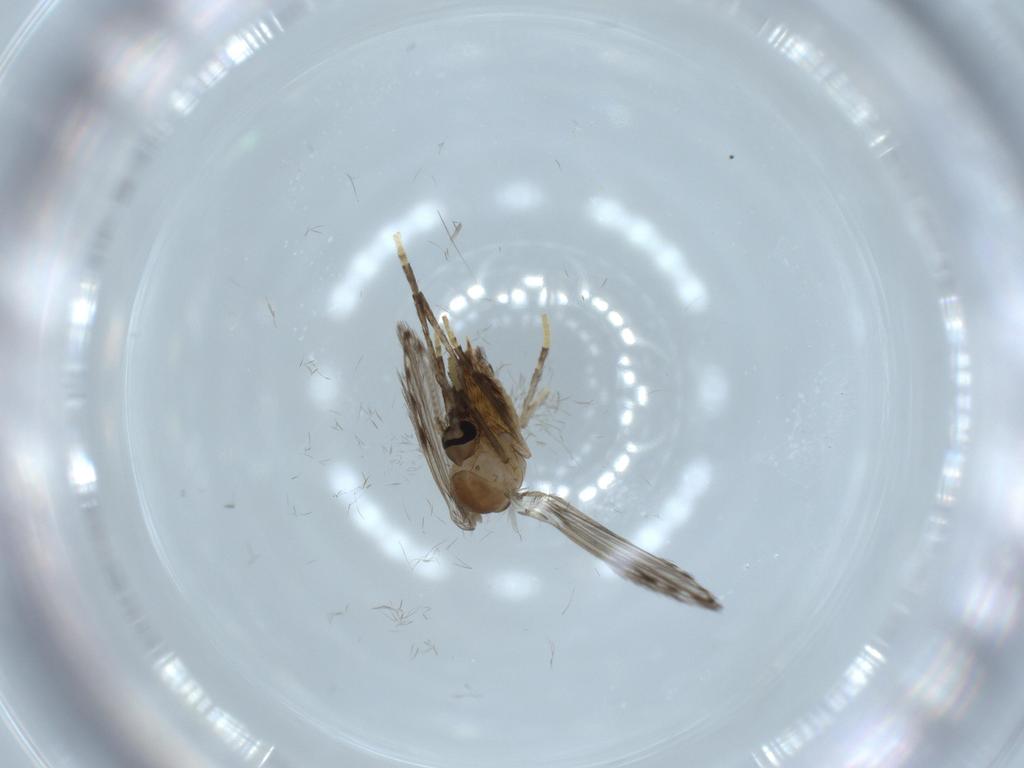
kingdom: Animalia
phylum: Arthropoda
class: Insecta
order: Diptera
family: Psychodidae
